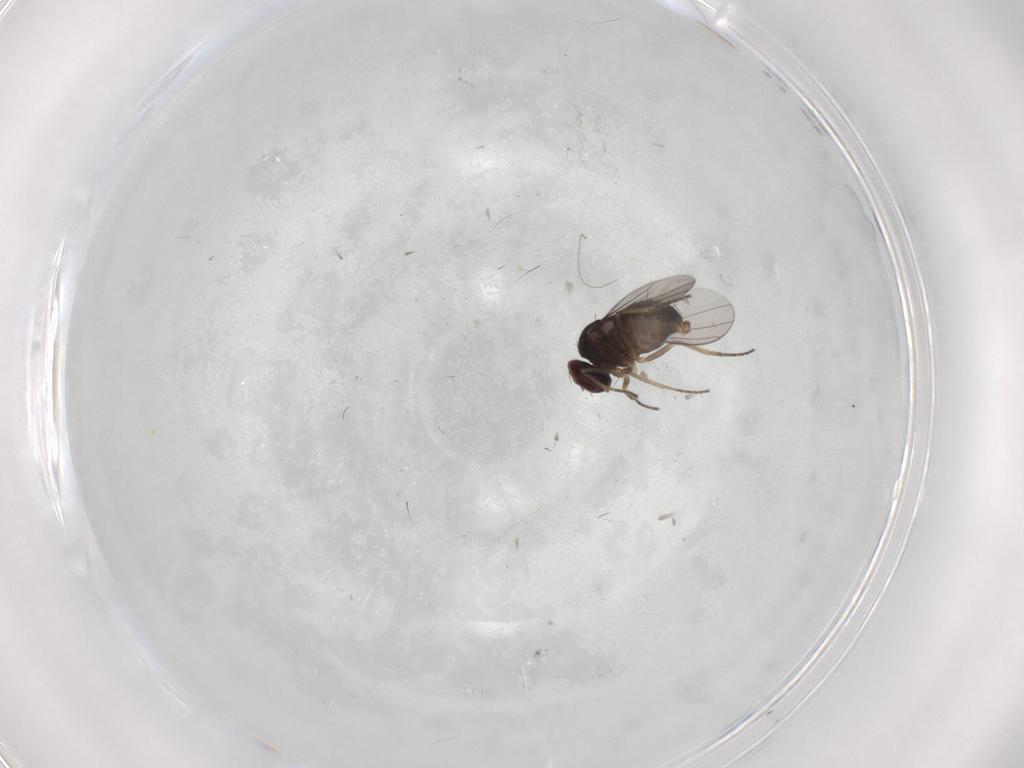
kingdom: Animalia
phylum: Arthropoda
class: Insecta
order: Diptera
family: Dolichopodidae
